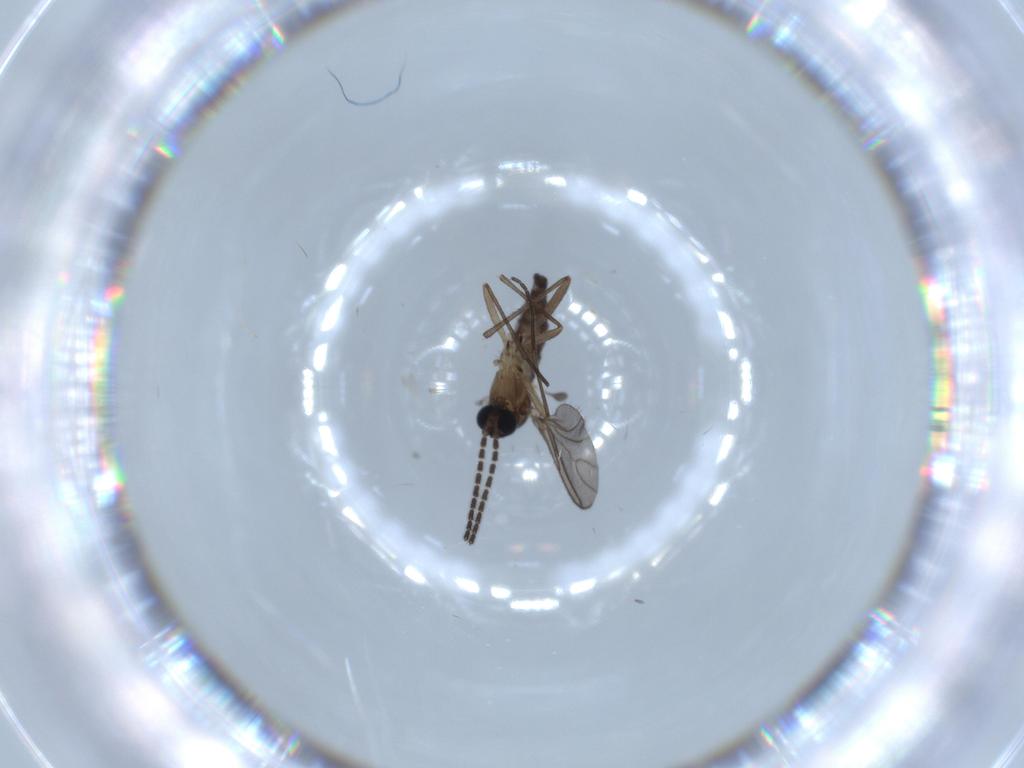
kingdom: Animalia
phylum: Arthropoda
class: Insecta
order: Diptera
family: Sciaridae
